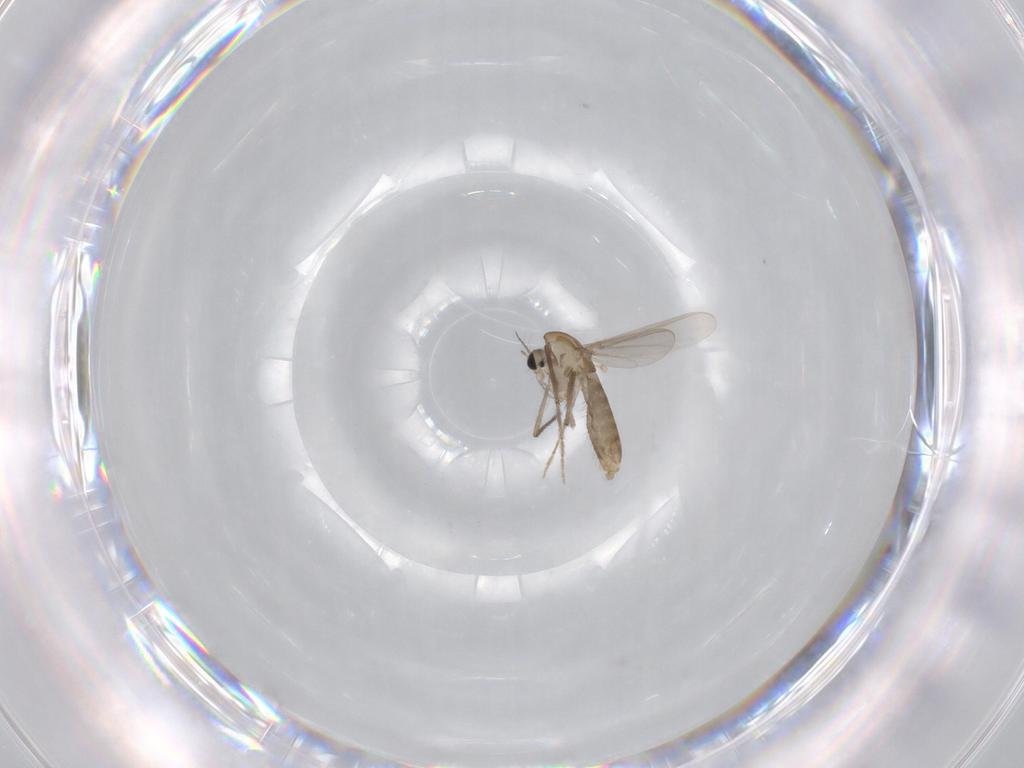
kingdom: Animalia
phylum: Arthropoda
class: Insecta
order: Diptera
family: Chironomidae
